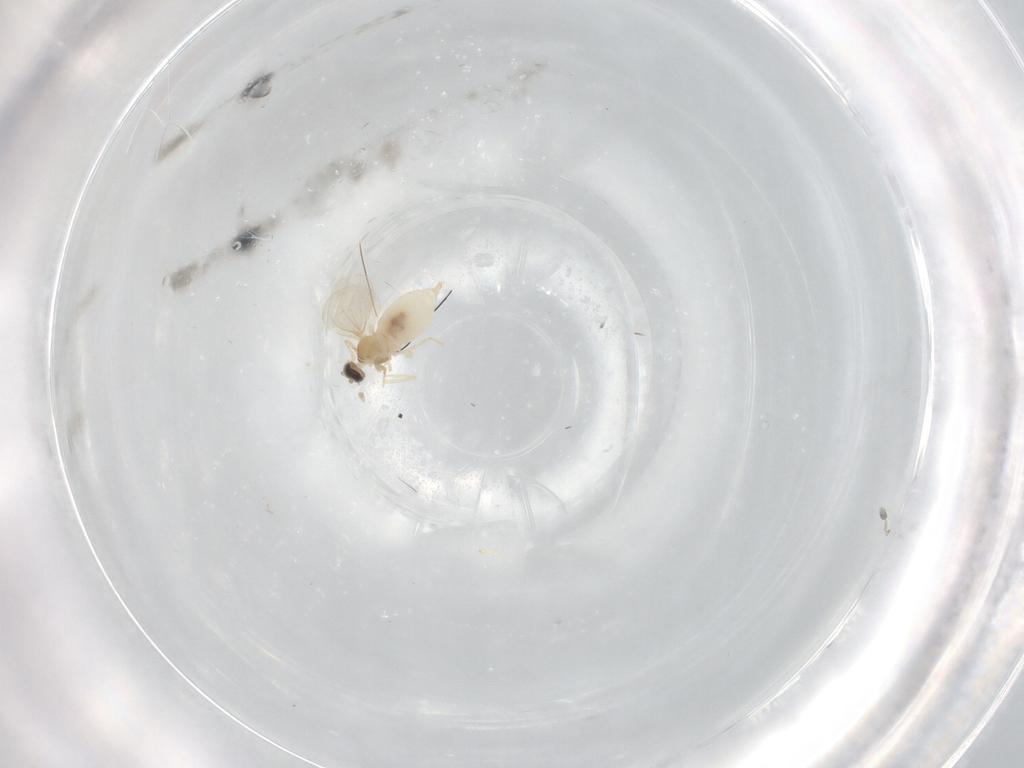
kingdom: Animalia
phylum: Arthropoda
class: Insecta
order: Diptera
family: Cecidomyiidae
